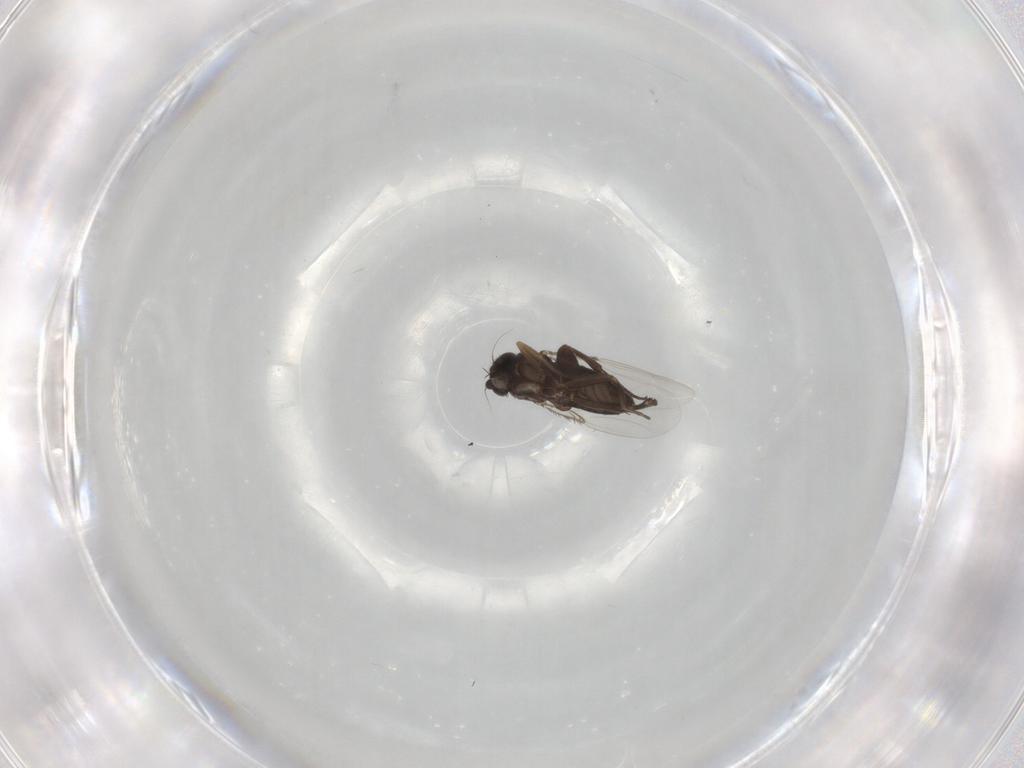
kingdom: Animalia
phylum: Arthropoda
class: Insecta
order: Diptera
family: Phoridae
